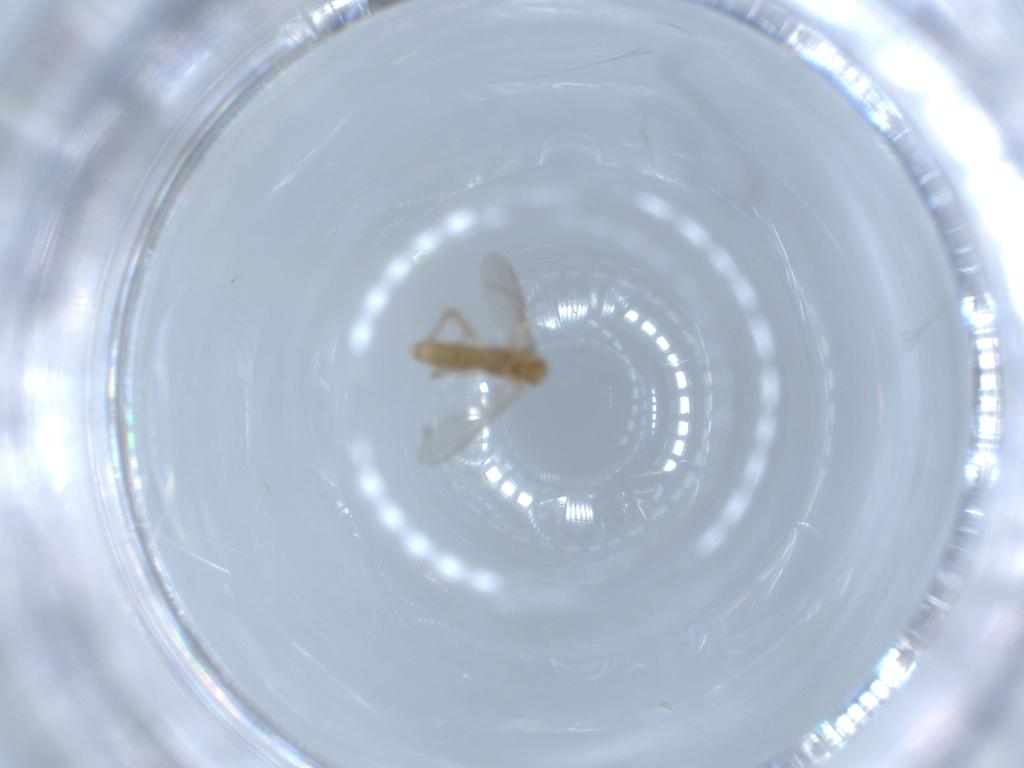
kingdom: Animalia
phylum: Arthropoda
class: Insecta
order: Diptera
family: Chironomidae
